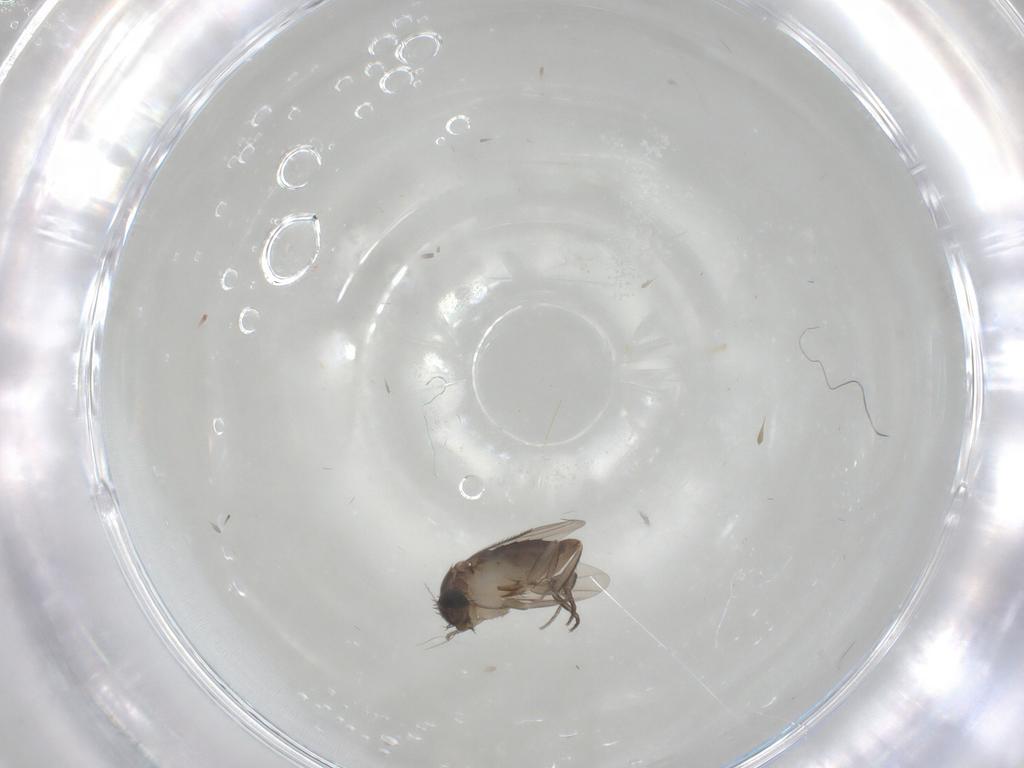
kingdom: Animalia
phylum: Arthropoda
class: Insecta
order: Diptera
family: Phoridae
